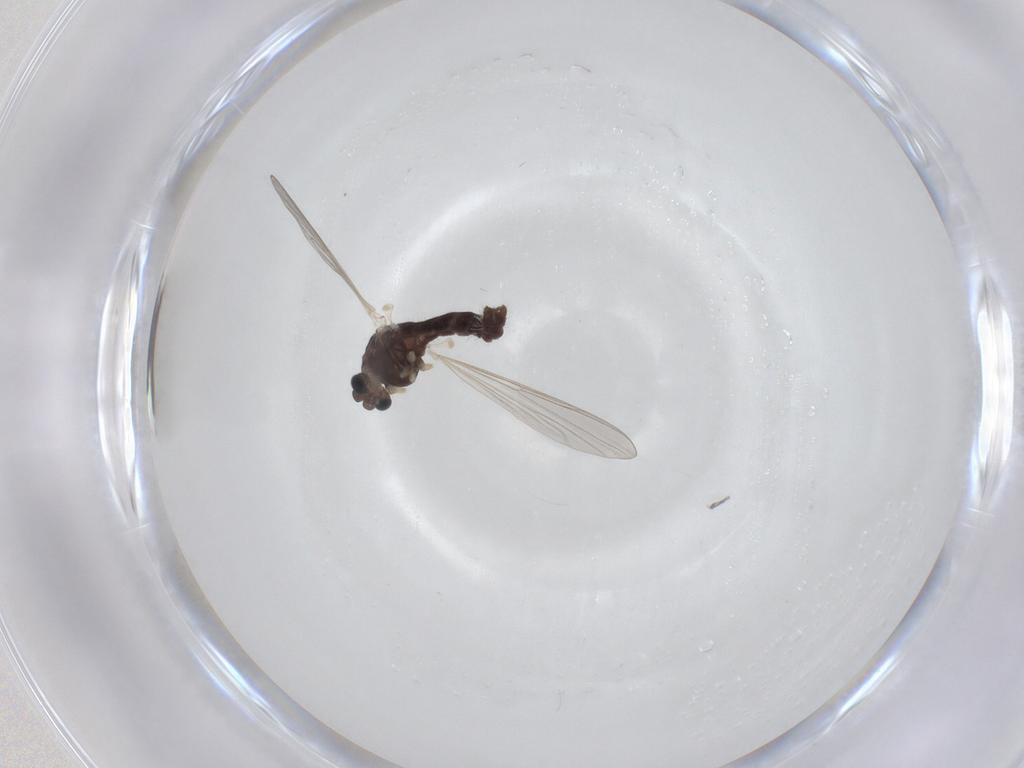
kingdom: Animalia
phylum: Arthropoda
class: Insecta
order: Diptera
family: Chironomidae
